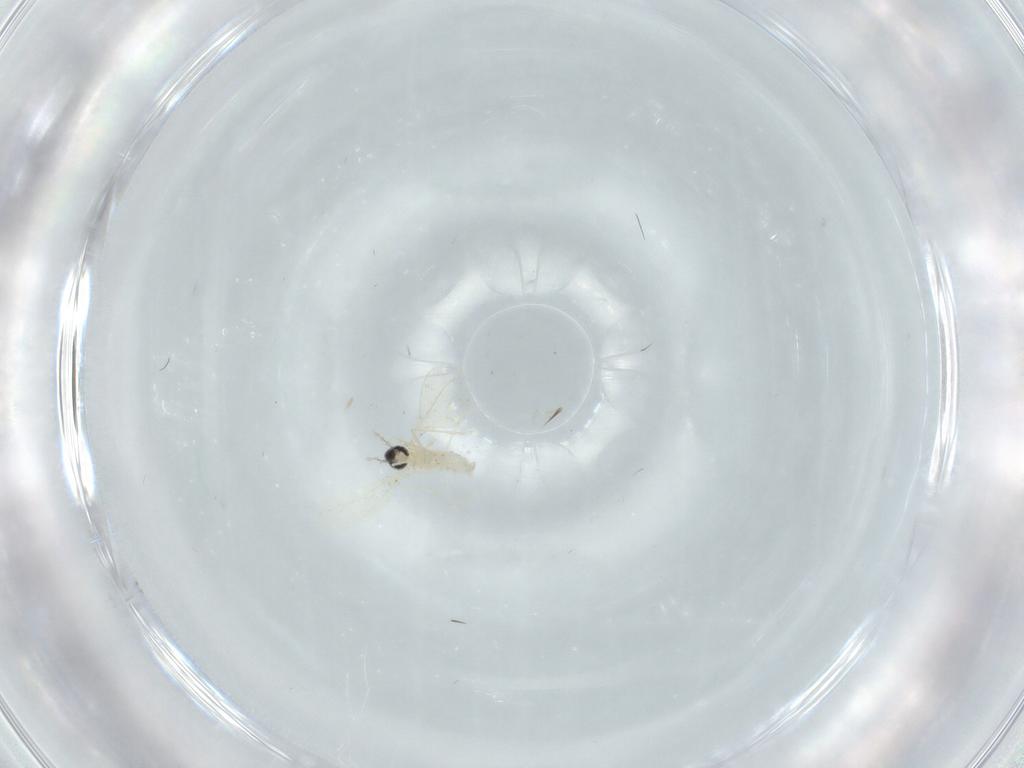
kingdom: Animalia
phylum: Arthropoda
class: Insecta
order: Diptera
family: Cecidomyiidae
